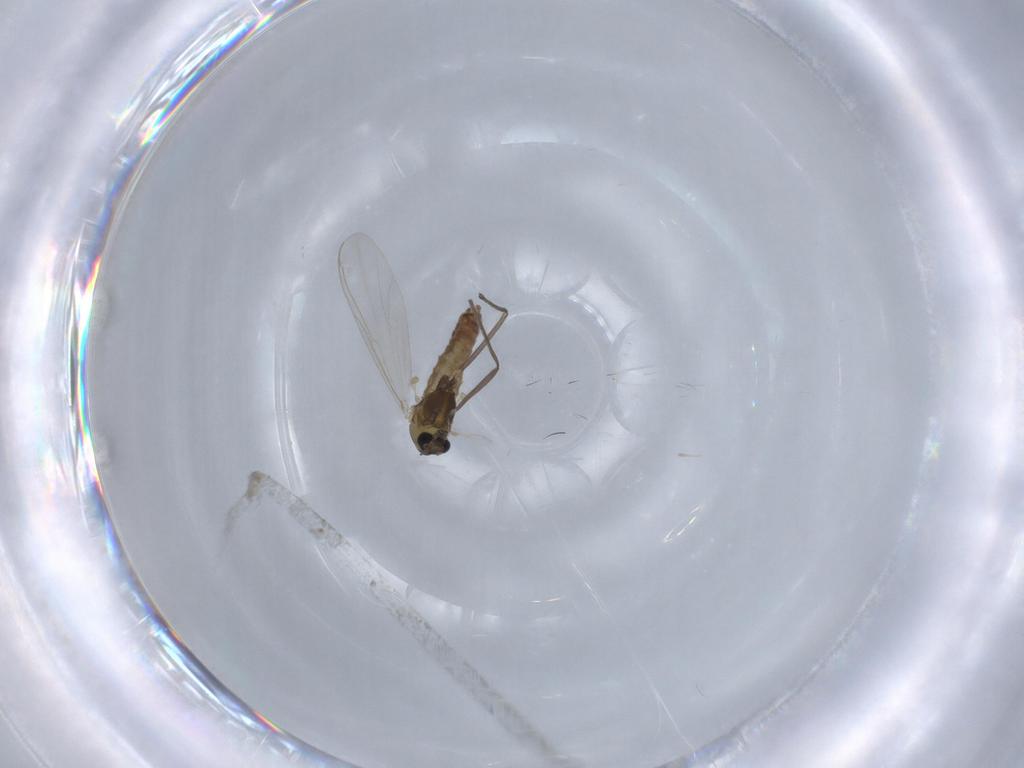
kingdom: Animalia
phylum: Arthropoda
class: Insecta
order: Diptera
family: Chironomidae
